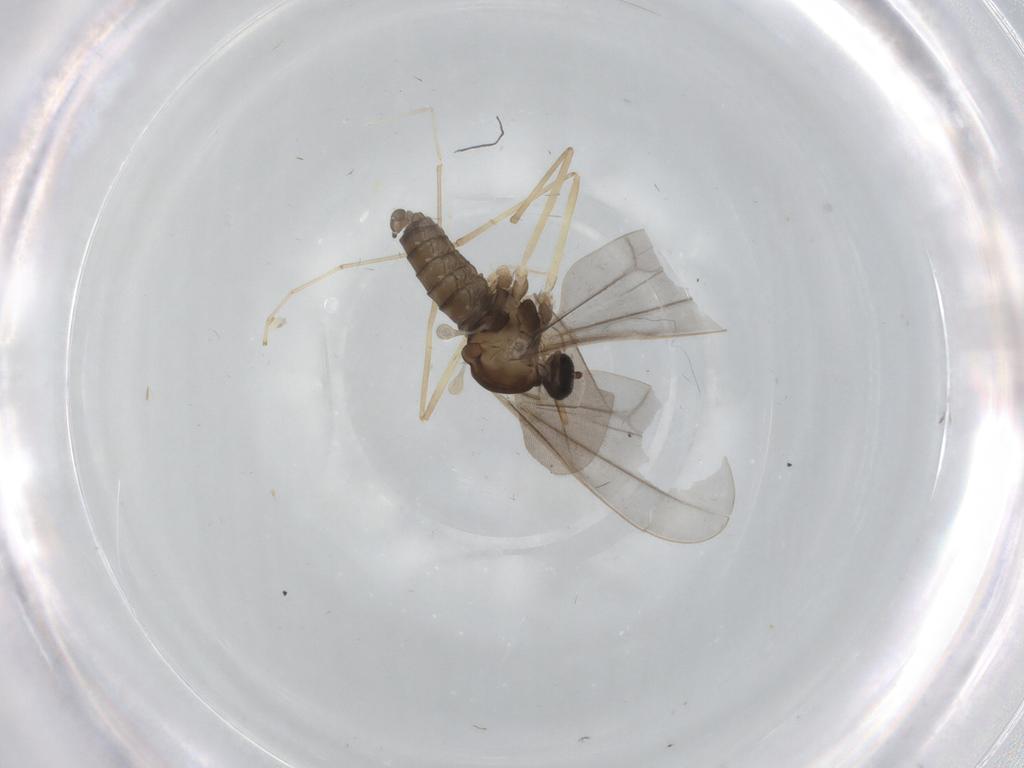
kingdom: Animalia
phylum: Arthropoda
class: Insecta
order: Diptera
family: Cecidomyiidae
